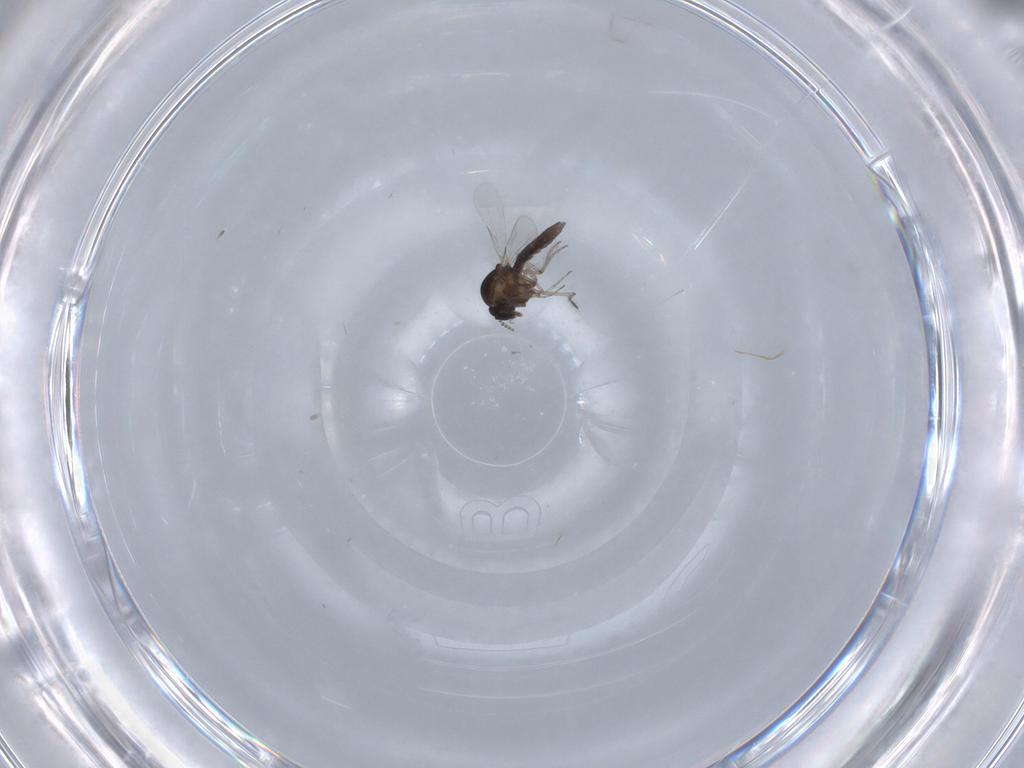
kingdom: Animalia
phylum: Arthropoda
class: Insecta
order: Diptera
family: Ceratopogonidae
